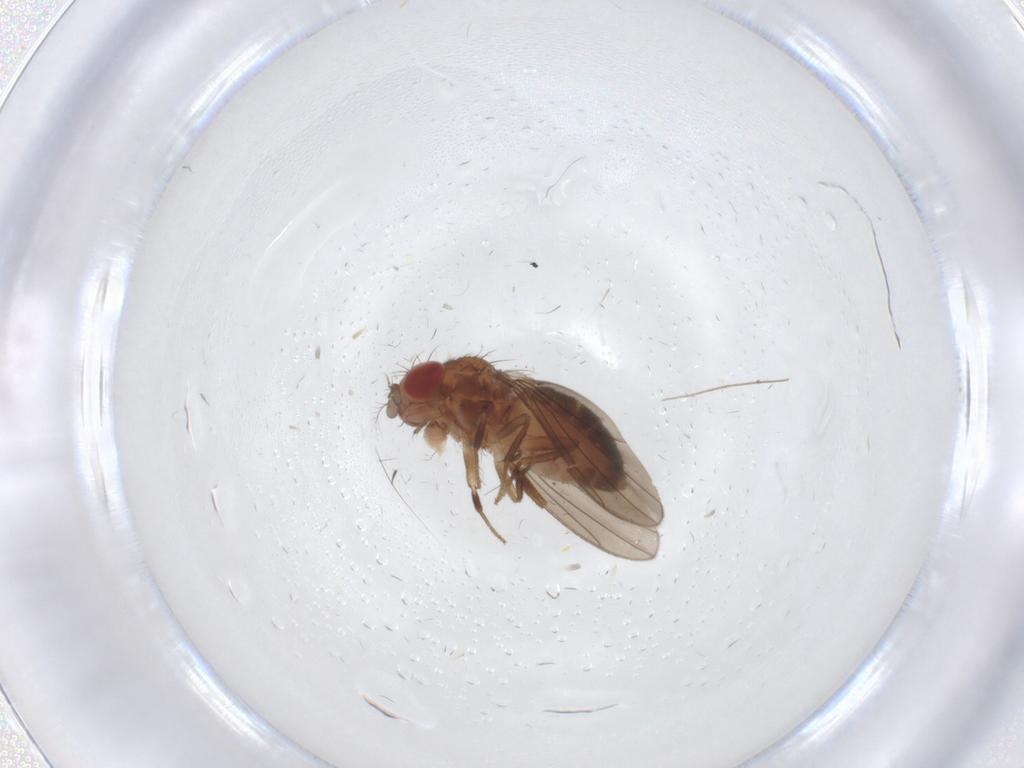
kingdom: Animalia
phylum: Arthropoda
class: Insecta
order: Diptera
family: Drosophilidae
